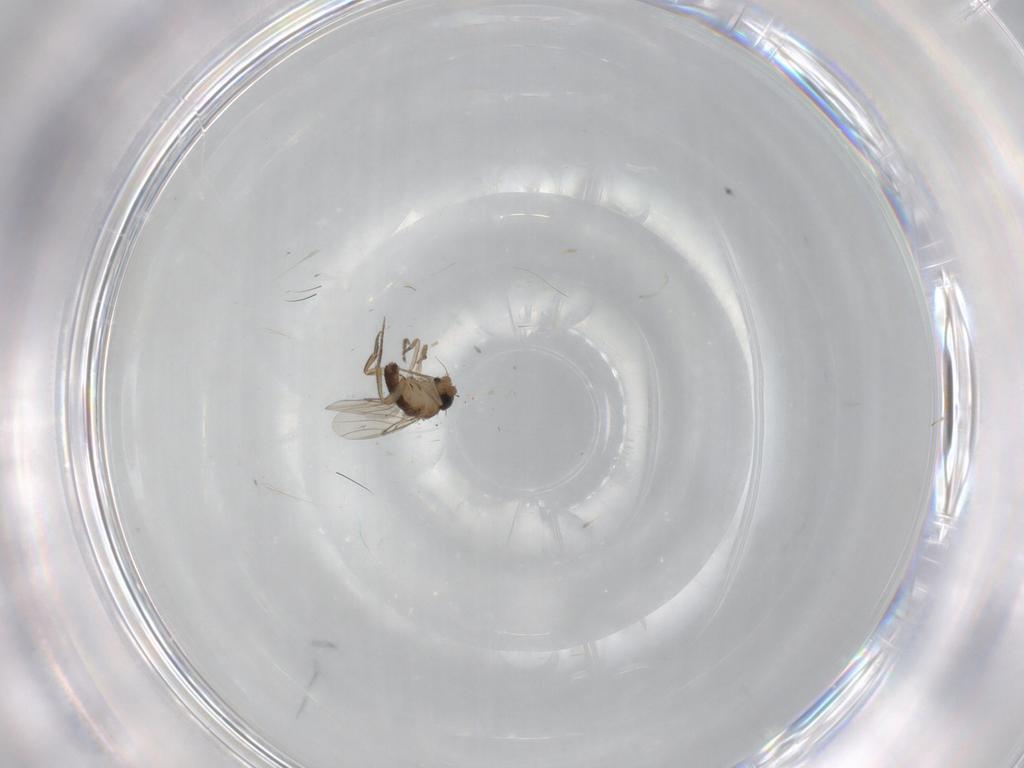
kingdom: Animalia
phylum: Arthropoda
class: Insecta
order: Diptera
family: Phoridae
